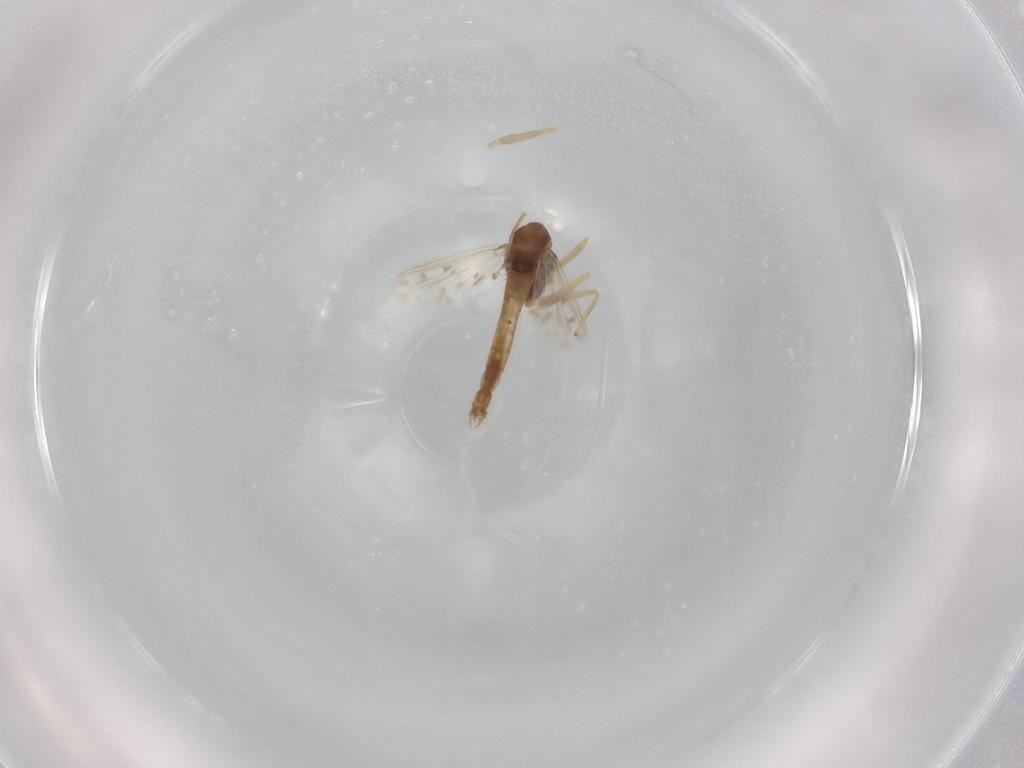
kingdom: Animalia
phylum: Arthropoda
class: Insecta
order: Diptera
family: Ceratopogonidae
